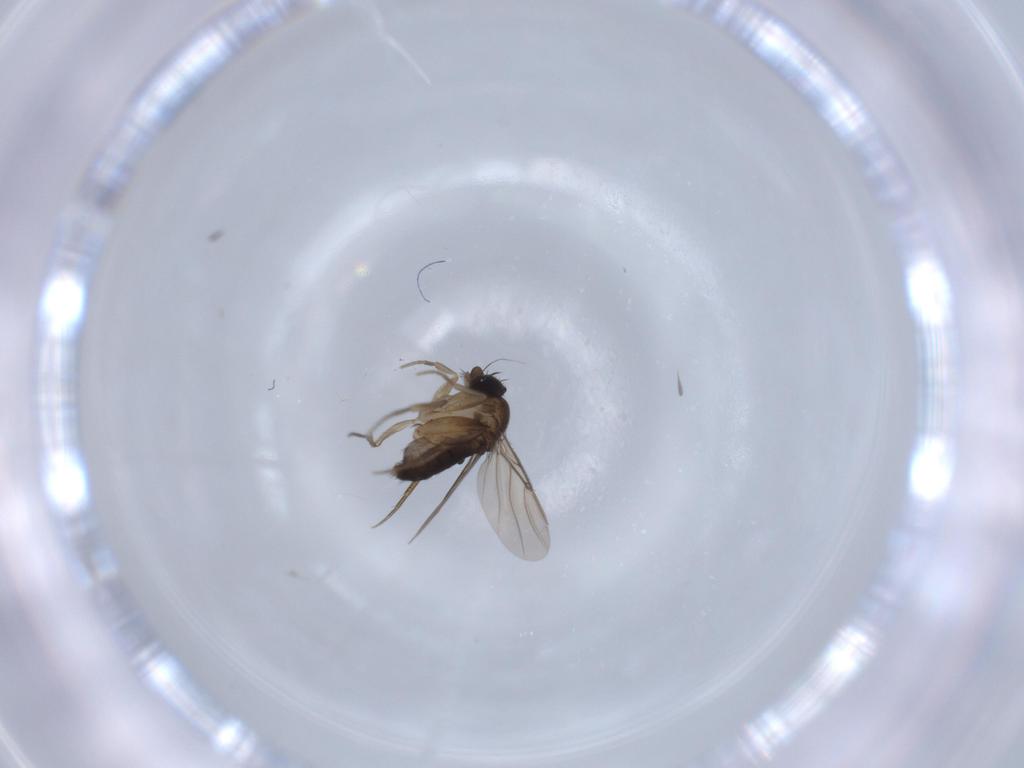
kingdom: Animalia
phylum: Arthropoda
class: Insecta
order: Diptera
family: Phoridae
